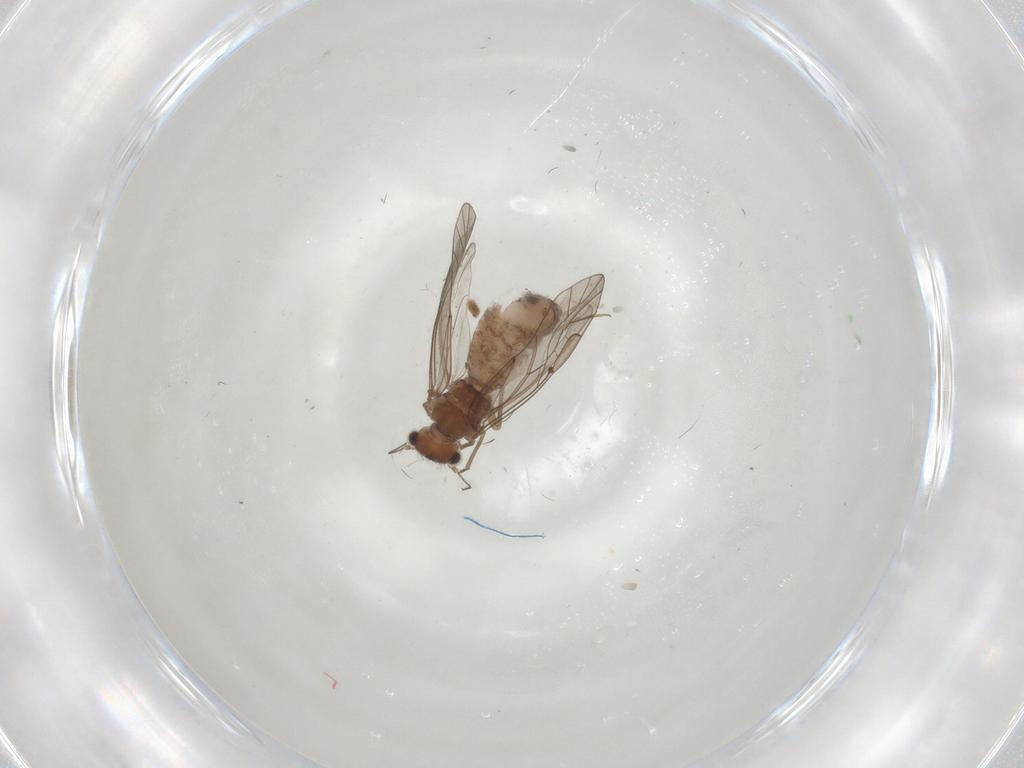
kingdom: Animalia
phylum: Arthropoda
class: Insecta
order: Psocodea
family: Lachesillidae
